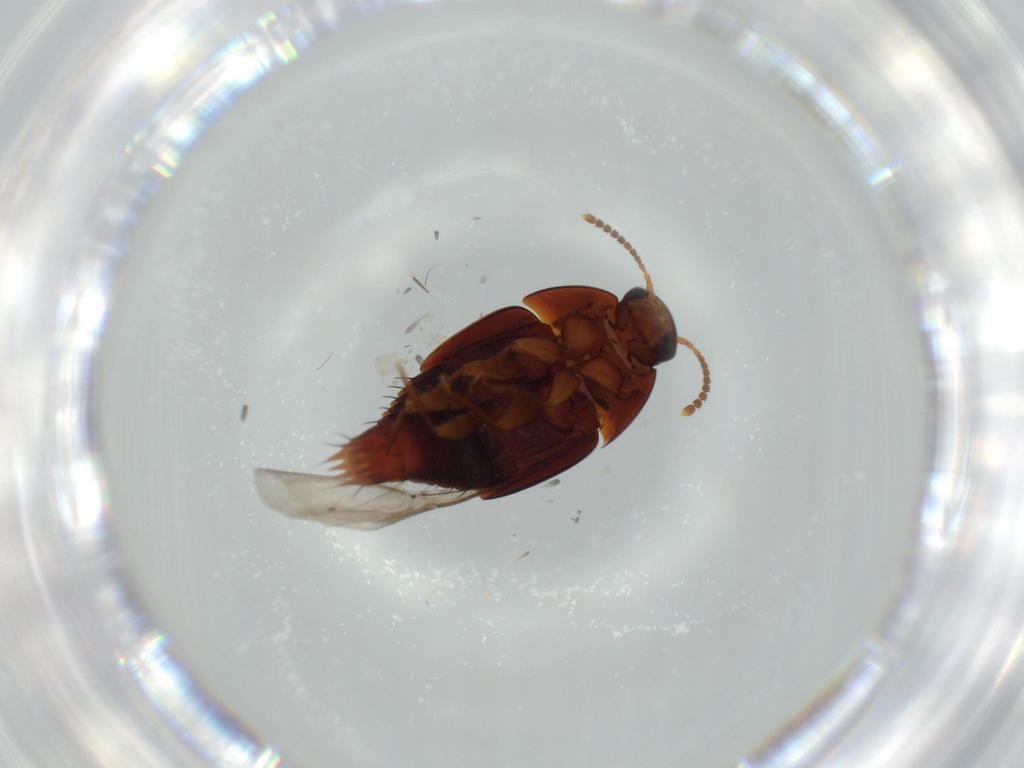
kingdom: Animalia
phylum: Arthropoda
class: Insecta
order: Coleoptera
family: Staphylinidae
